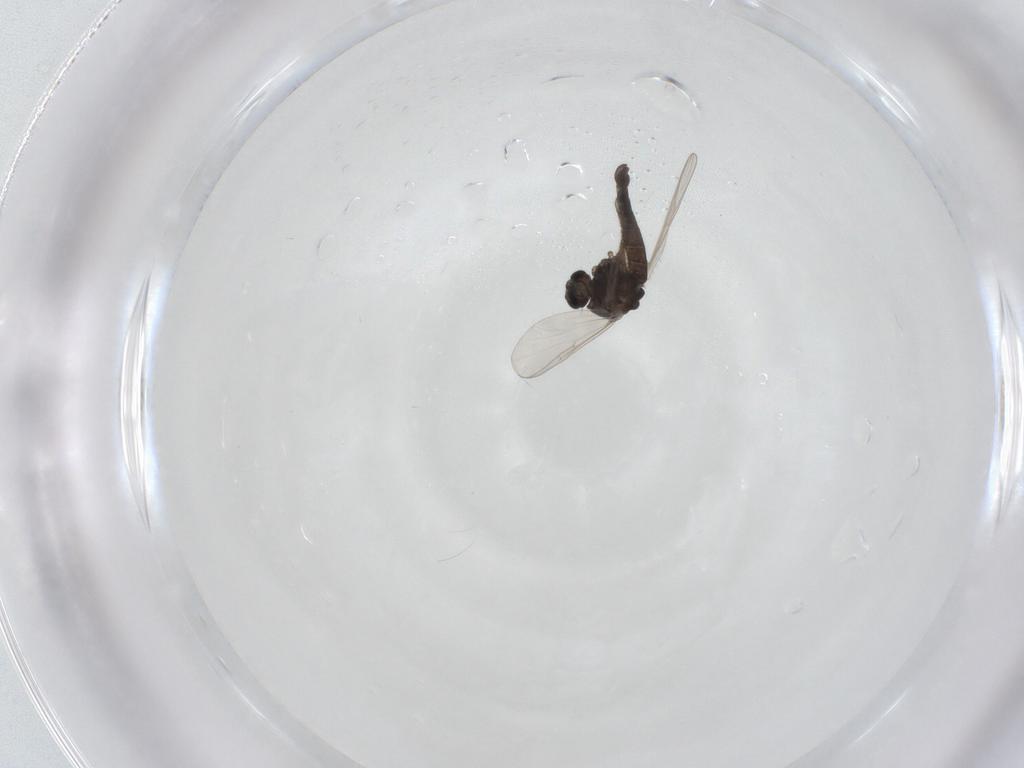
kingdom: Animalia
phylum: Arthropoda
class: Insecta
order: Diptera
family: Chironomidae
